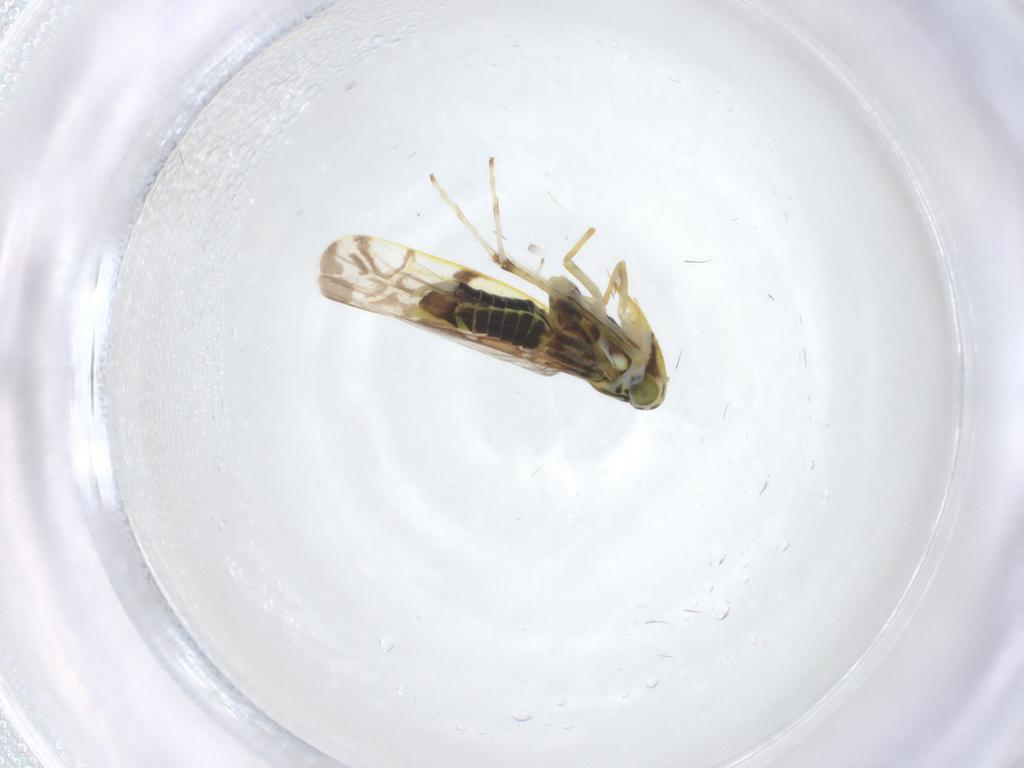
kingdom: Animalia
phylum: Arthropoda
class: Insecta
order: Hemiptera
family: Cicadellidae
